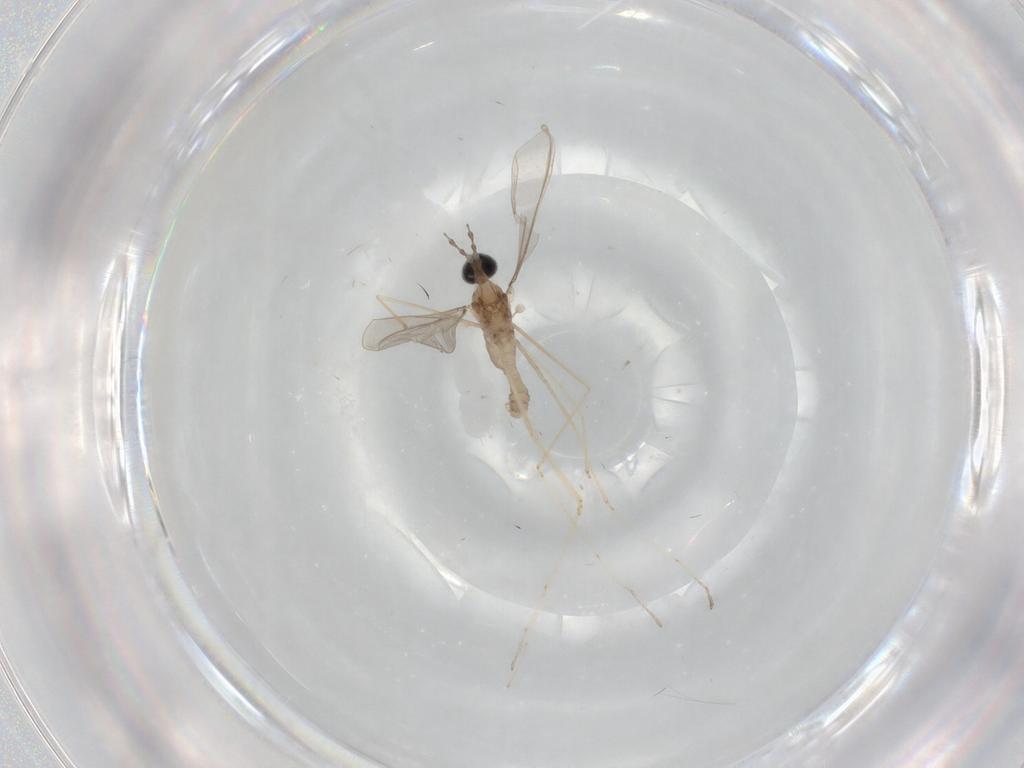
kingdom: Animalia
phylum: Arthropoda
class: Insecta
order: Diptera
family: Cecidomyiidae
